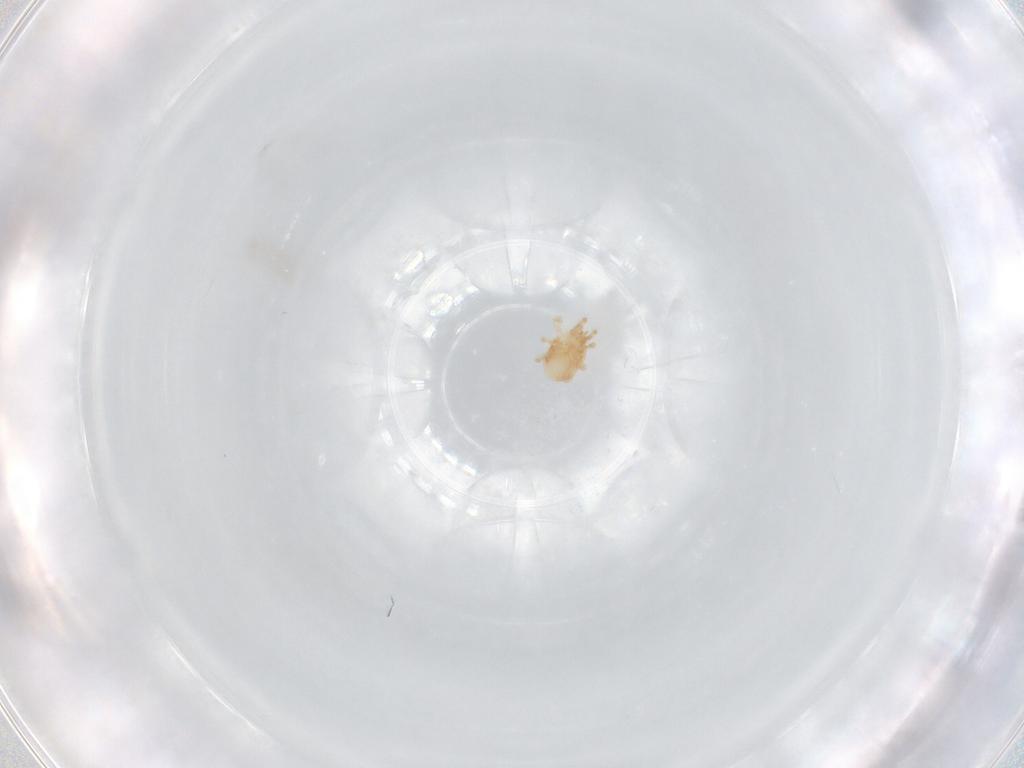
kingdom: Animalia
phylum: Arthropoda
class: Arachnida
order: Mesostigmata
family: Phytoseiidae
